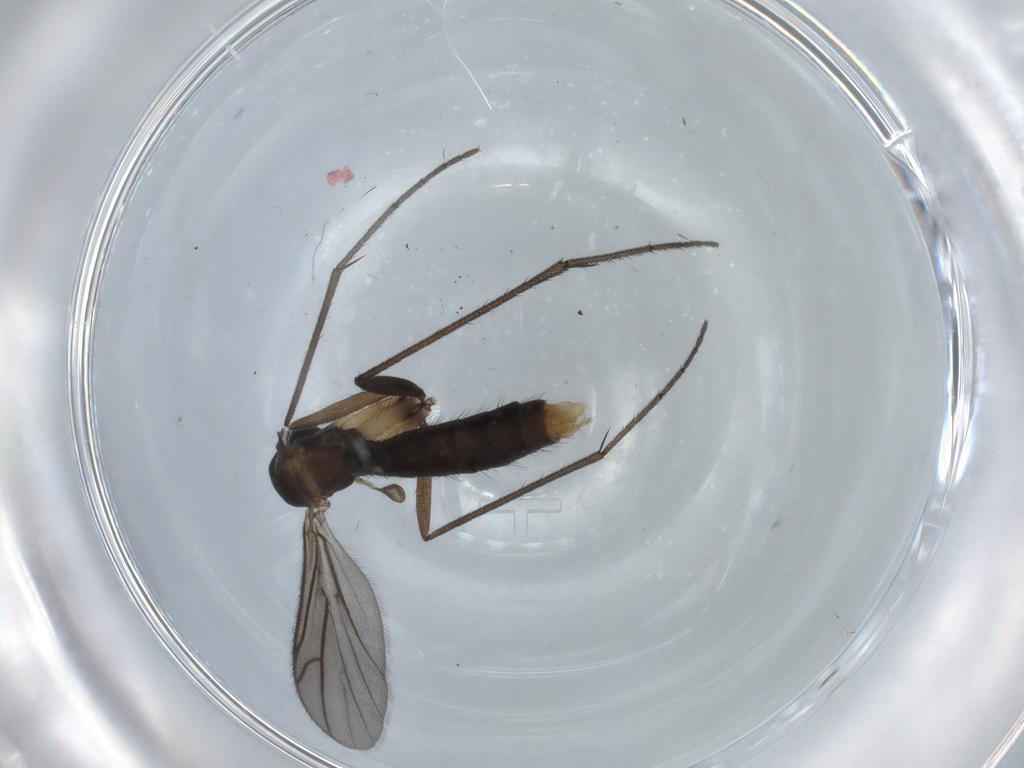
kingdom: Animalia
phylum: Arthropoda
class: Insecta
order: Diptera
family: Ditomyiidae
